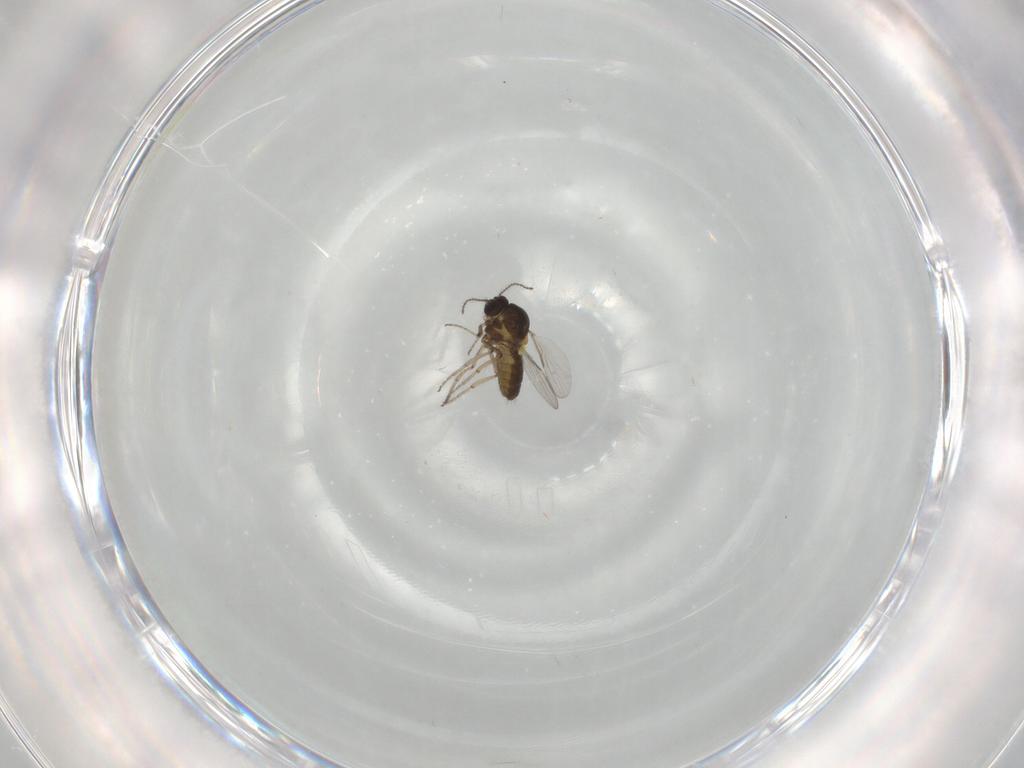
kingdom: Animalia
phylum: Arthropoda
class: Insecta
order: Diptera
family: Ceratopogonidae
